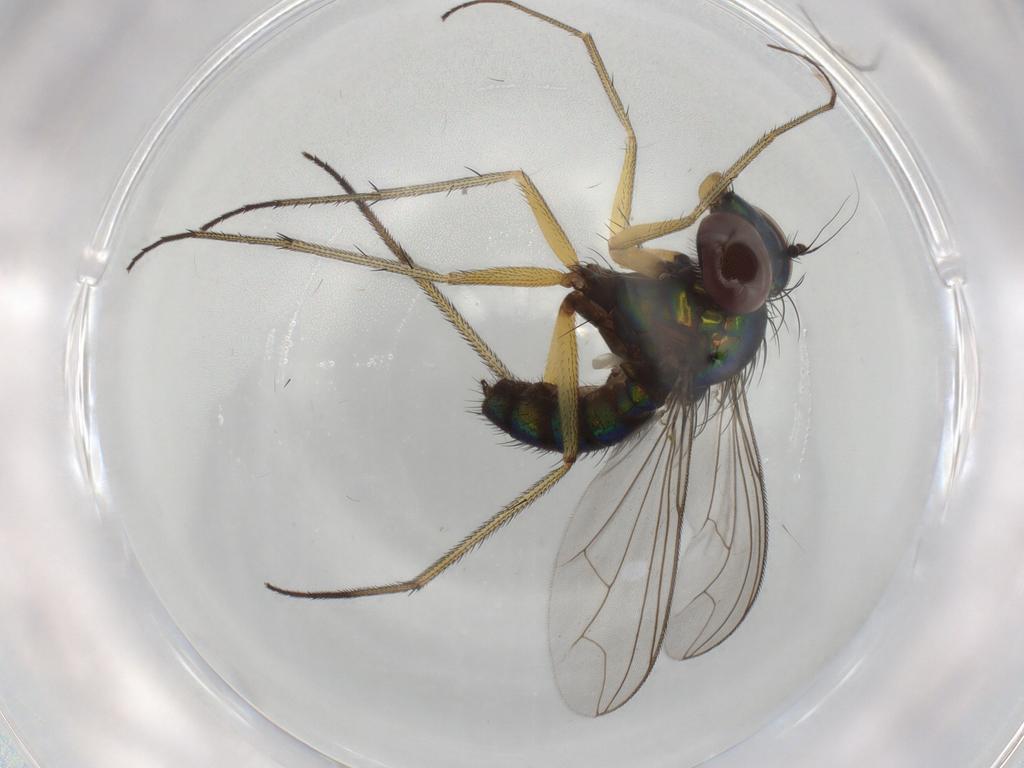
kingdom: Animalia
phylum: Arthropoda
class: Insecta
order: Diptera
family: Dolichopodidae
